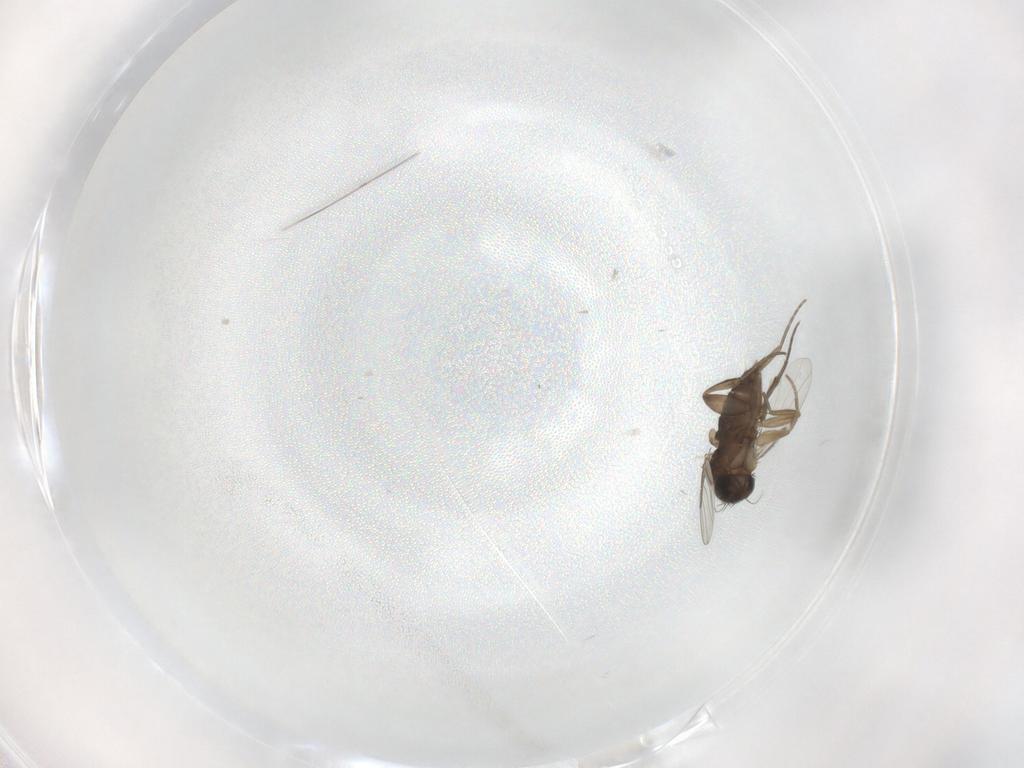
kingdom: Animalia
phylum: Arthropoda
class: Insecta
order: Diptera
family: Phoridae
